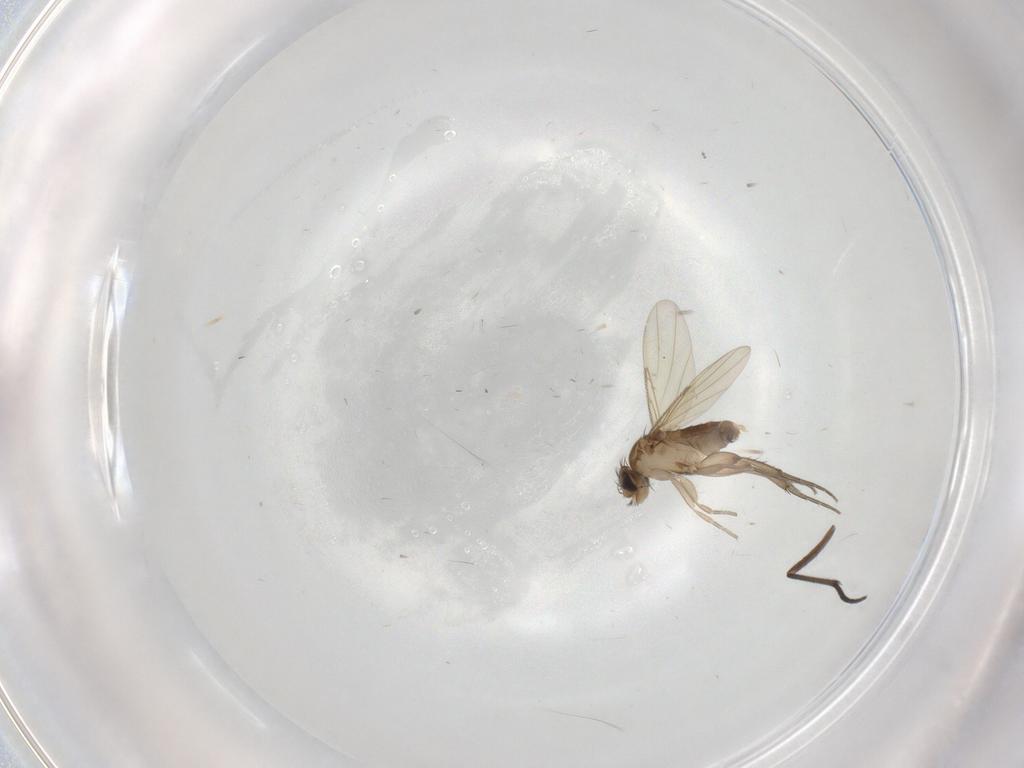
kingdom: Animalia
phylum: Arthropoda
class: Insecta
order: Diptera
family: Phoridae
